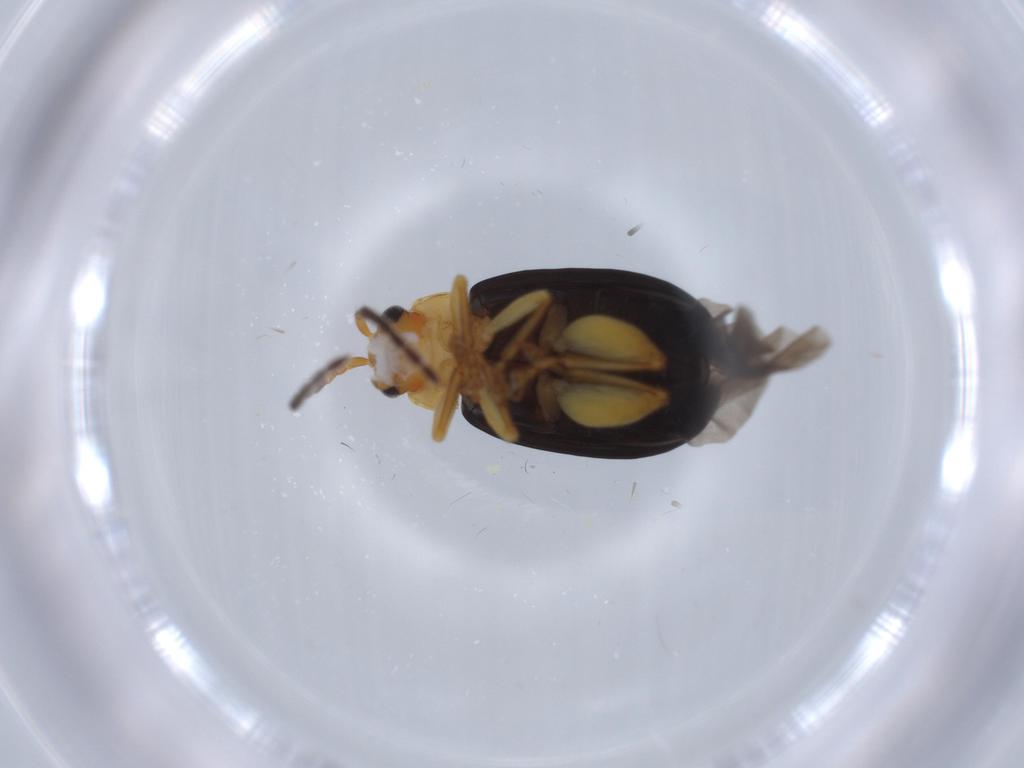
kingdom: Animalia
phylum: Arthropoda
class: Insecta
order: Coleoptera
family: Chrysomelidae
